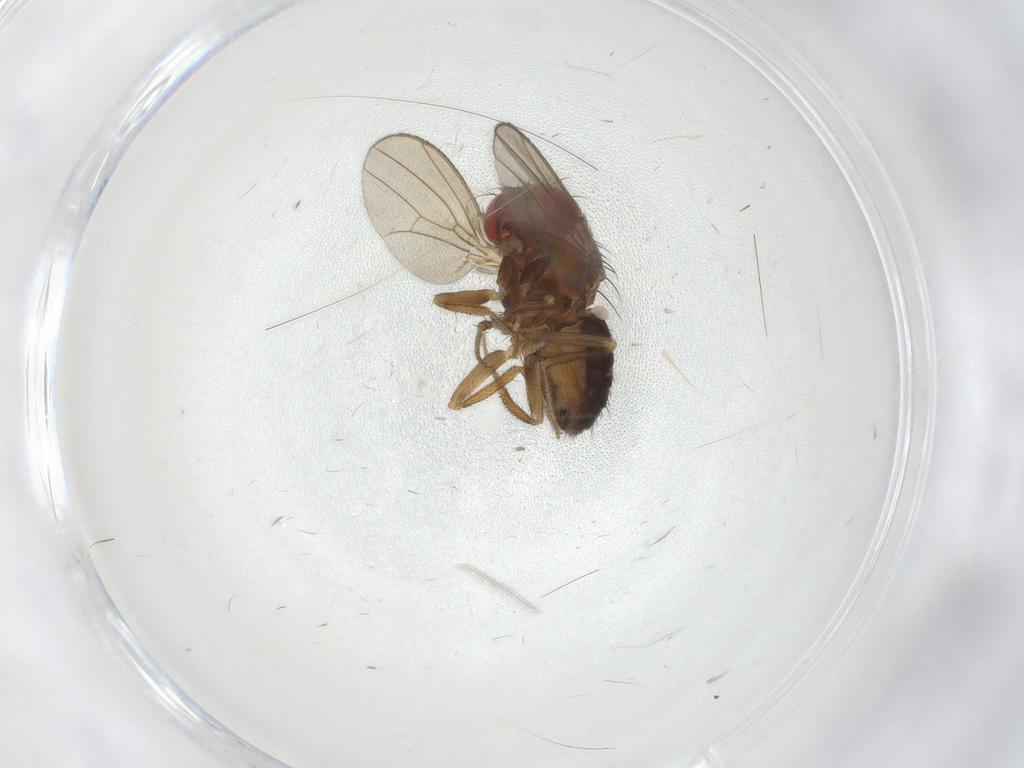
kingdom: Animalia
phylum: Arthropoda
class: Insecta
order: Diptera
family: Drosophilidae
